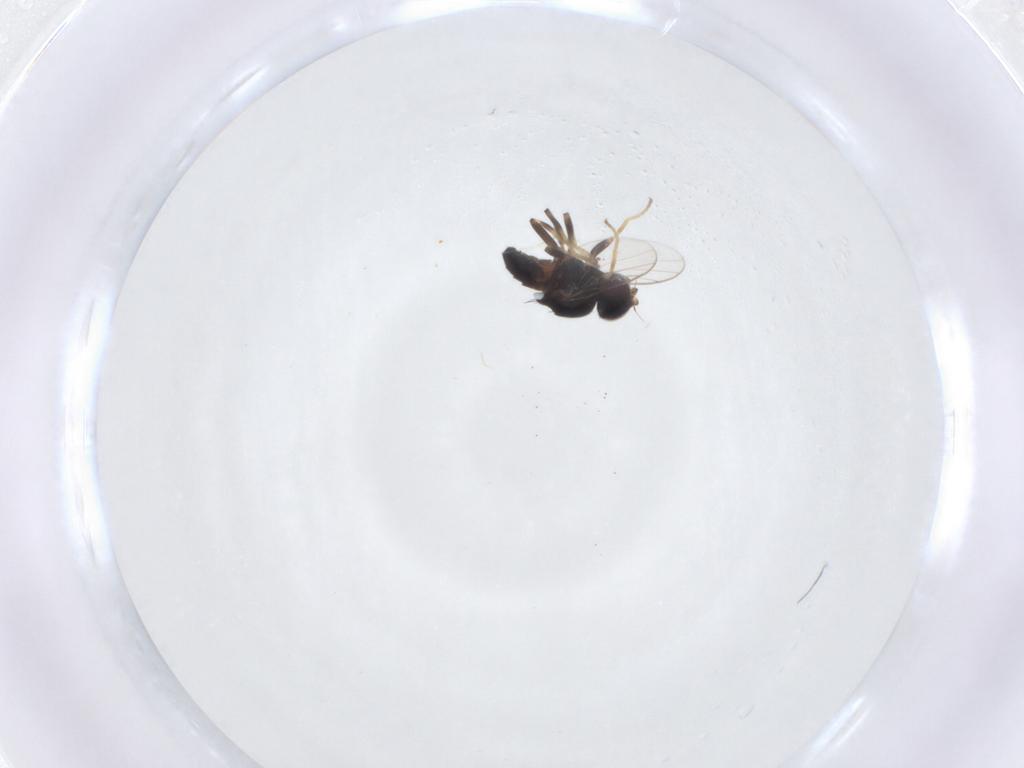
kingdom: Animalia
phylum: Arthropoda
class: Insecta
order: Diptera
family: Chloropidae
